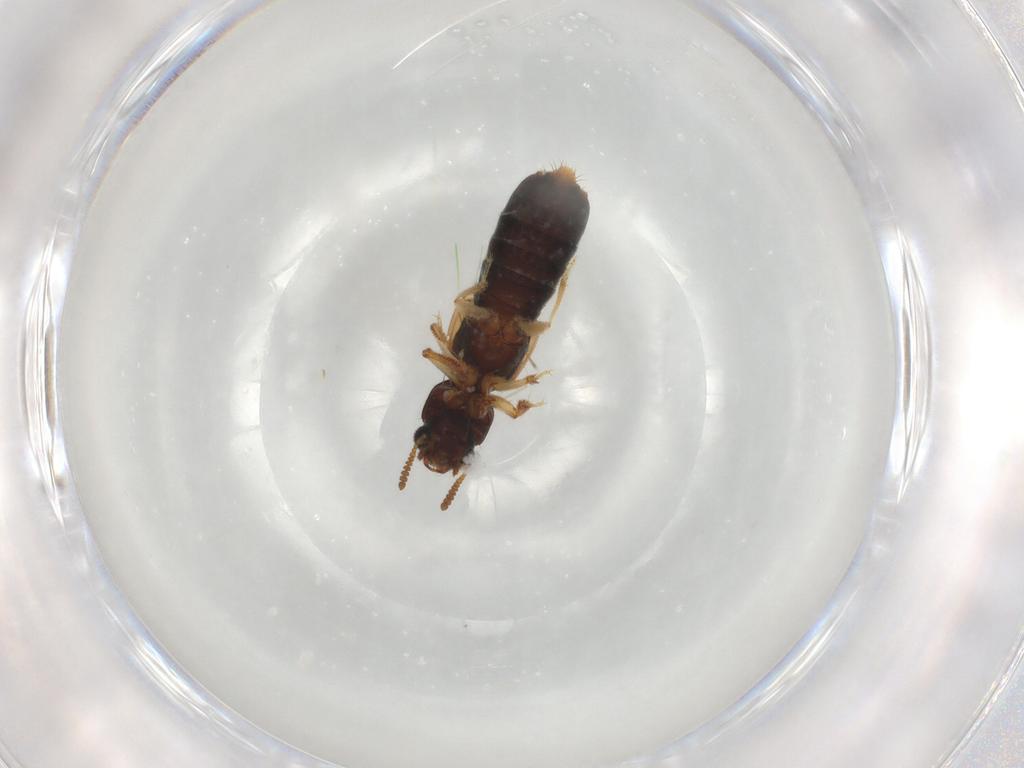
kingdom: Animalia
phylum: Arthropoda
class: Insecta
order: Coleoptera
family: Staphylinidae
